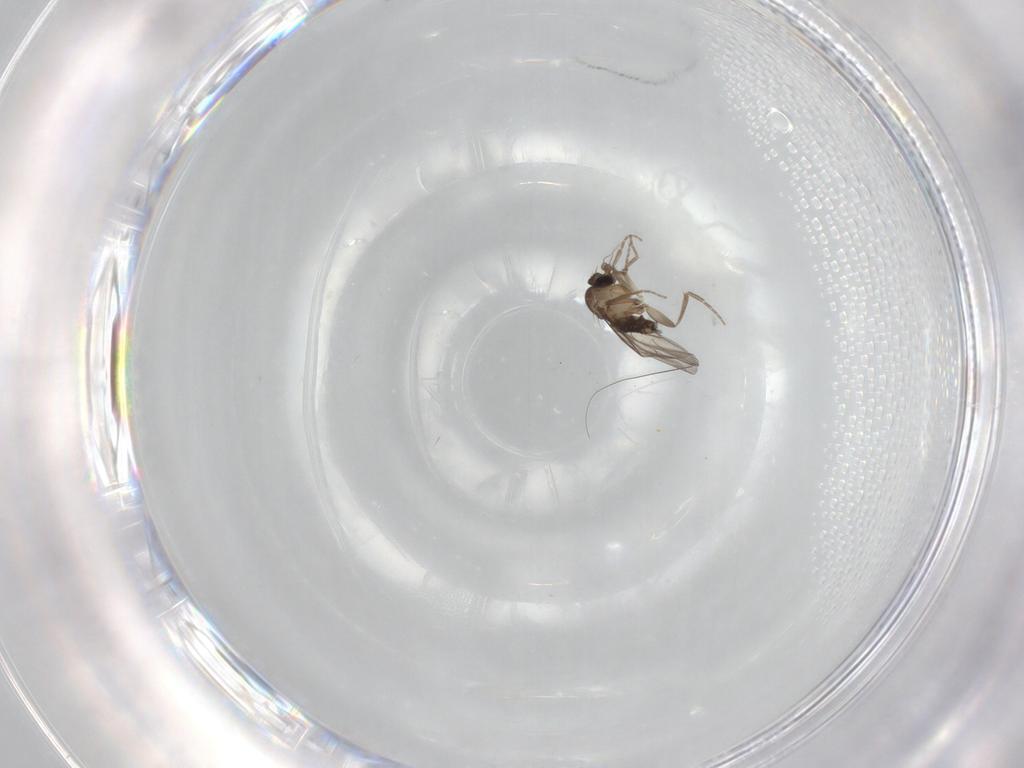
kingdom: Animalia
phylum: Arthropoda
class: Insecta
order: Diptera
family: Phoridae
